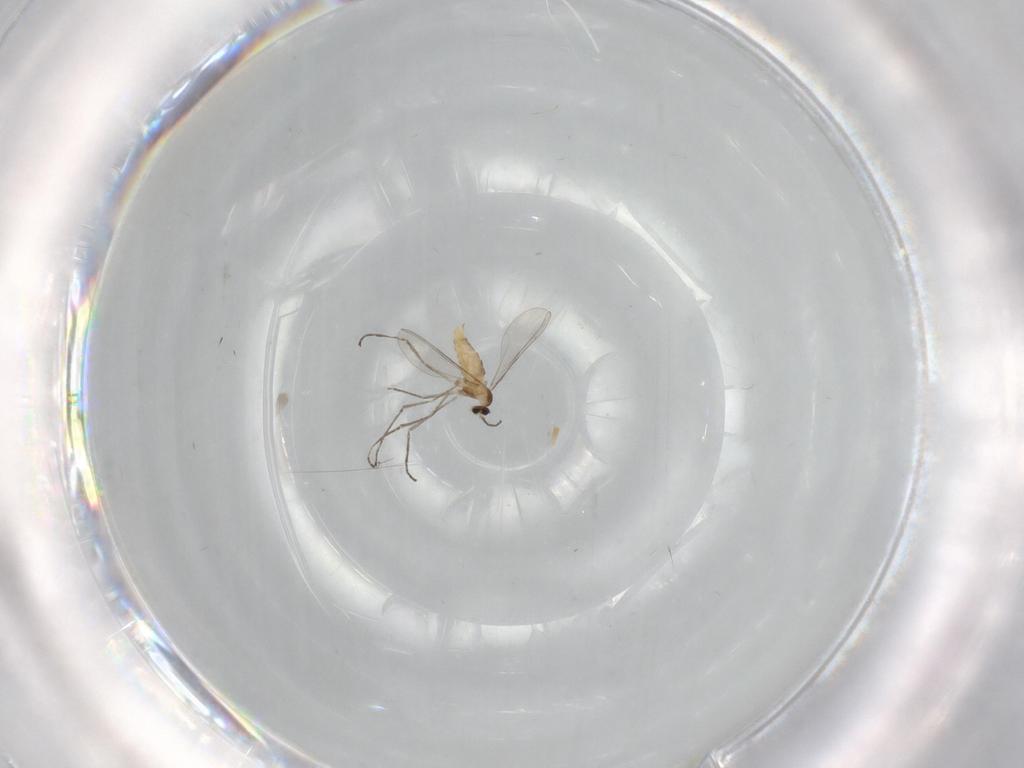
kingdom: Animalia
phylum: Arthropoda
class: Insecta
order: Diptera
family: Cecidomyiidae
